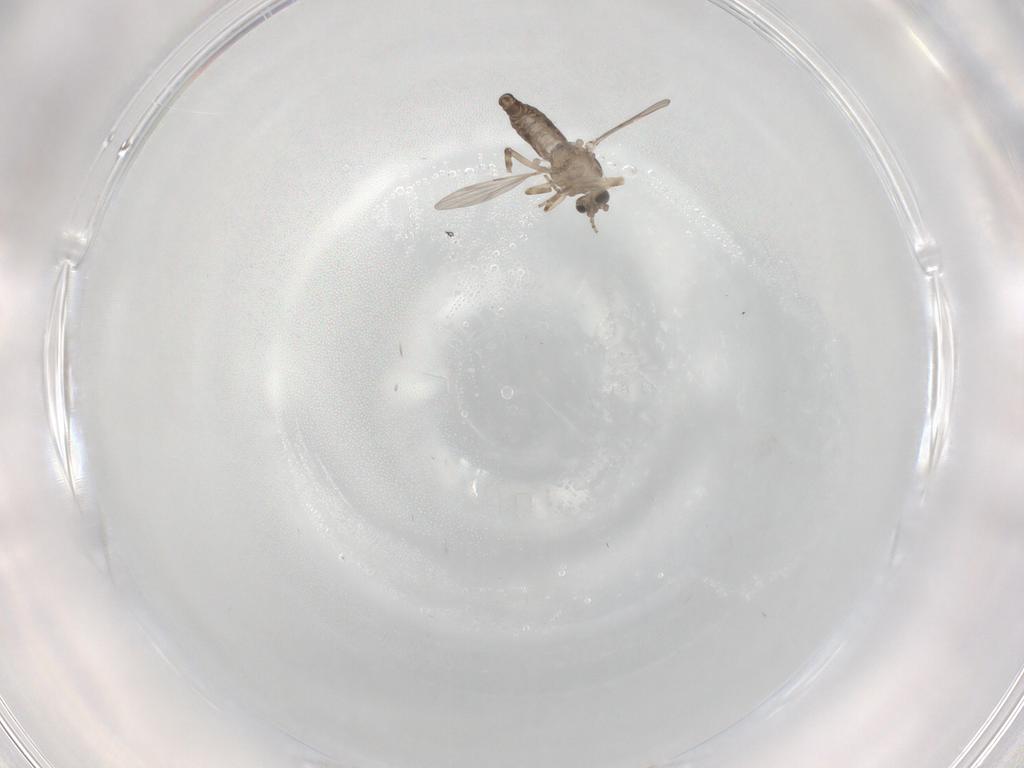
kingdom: Animalia
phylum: Arthropoda
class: Insecta
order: Diptera
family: Ceratopogonidae
